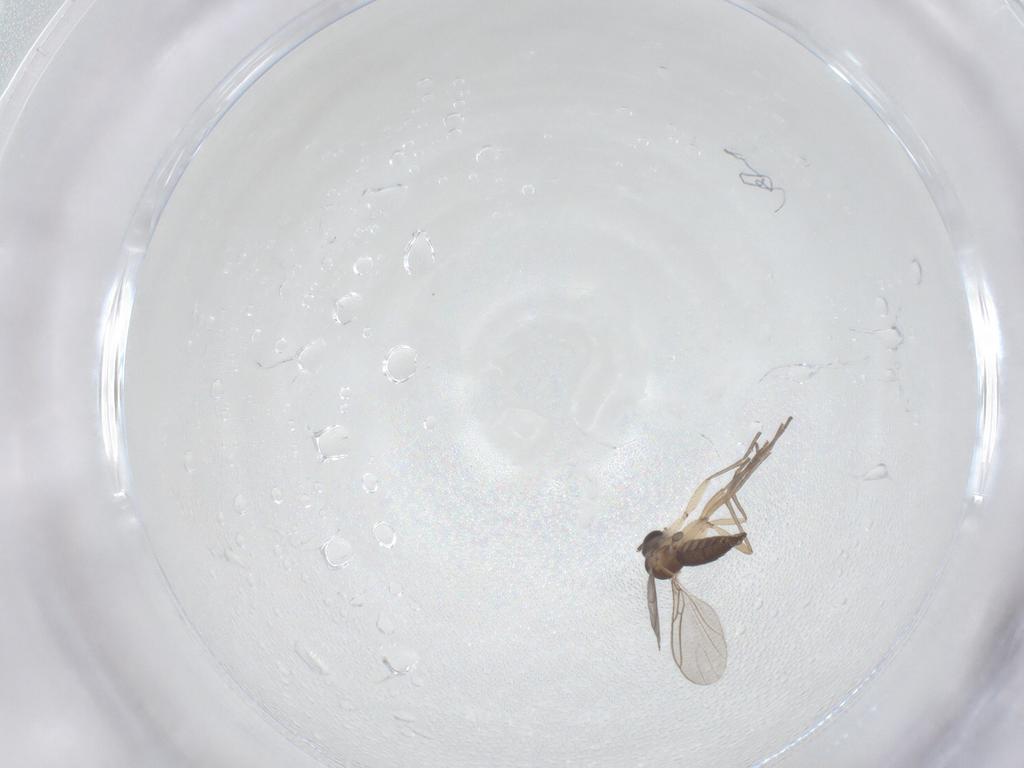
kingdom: Animalia
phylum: Arthropoda
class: Insecta
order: Diptera
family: Sciaridae
